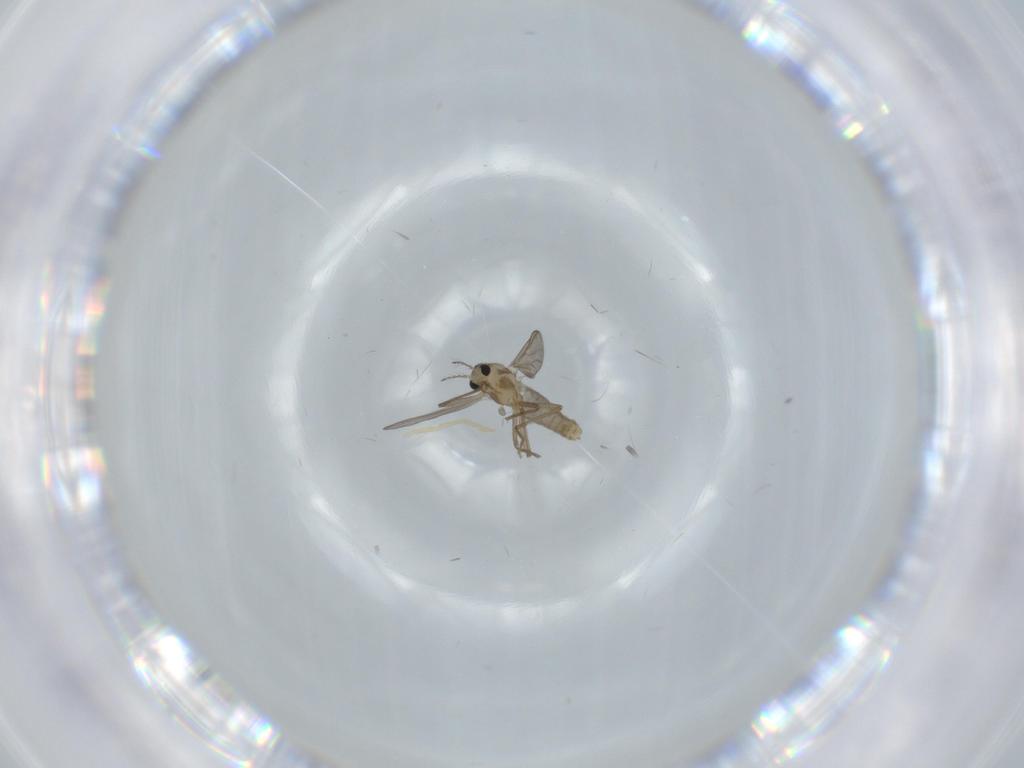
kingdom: Animalia
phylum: Arthropoda
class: Insecta
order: Diptera
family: Chironomidae
